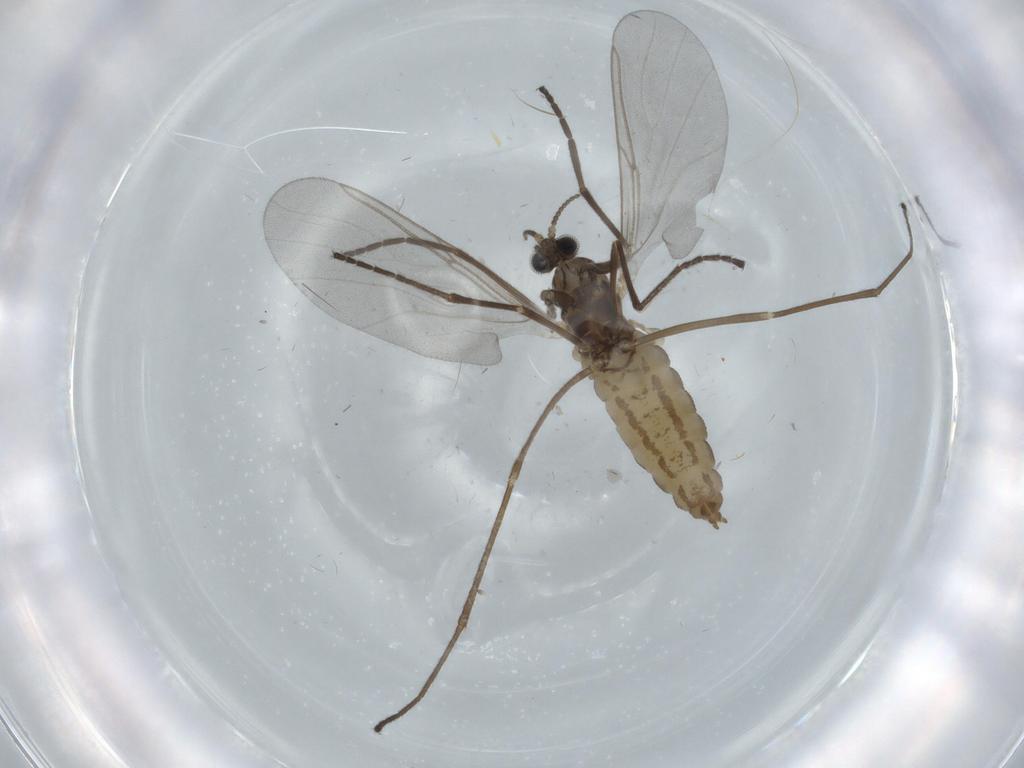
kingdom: Animalia
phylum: Arthropoda
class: Insecta
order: Diptera
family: Cecidomyiidae
